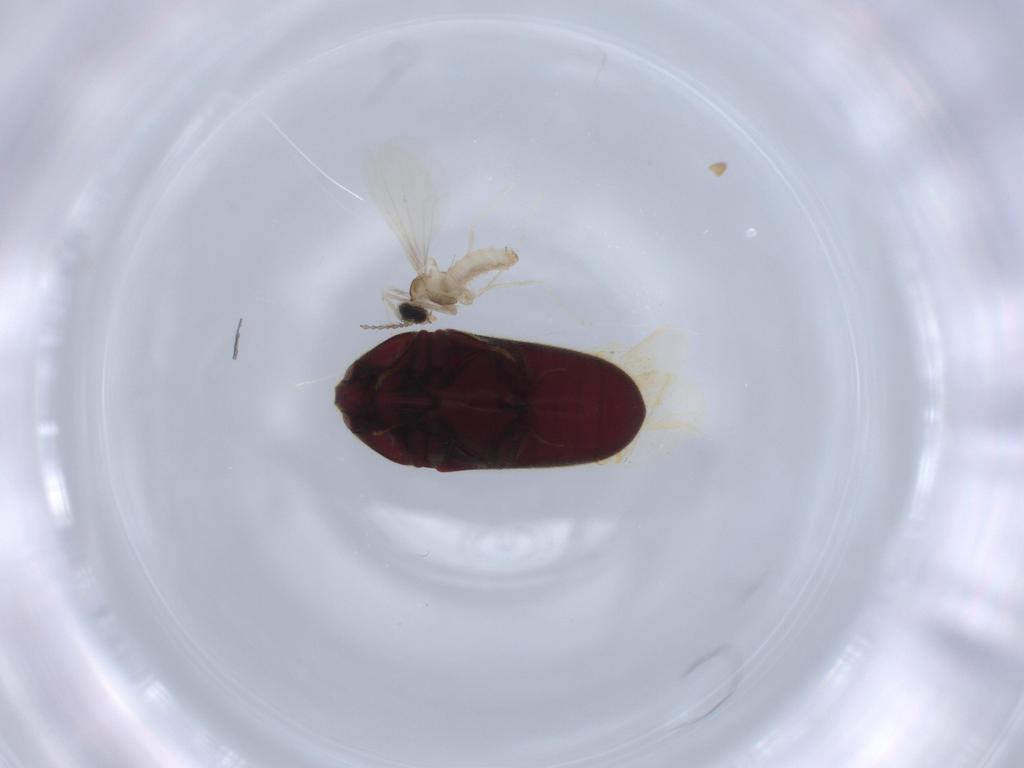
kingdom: Animalia
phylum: Arthropoda
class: Insecta
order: Diptera
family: Cecidomyiidae
